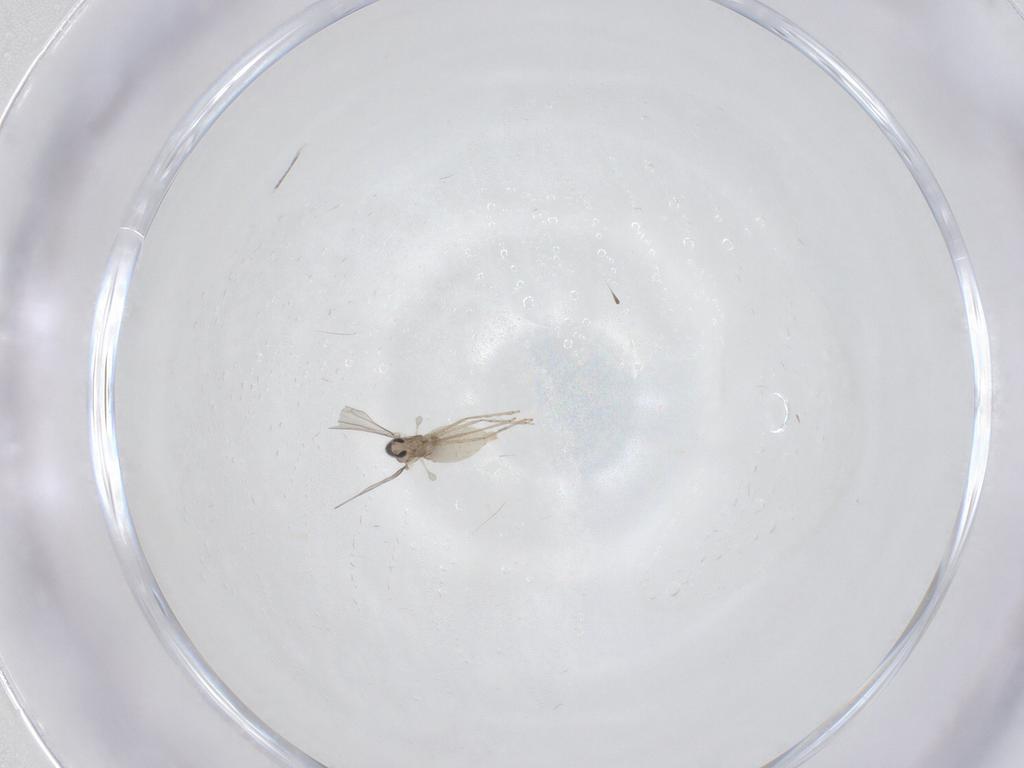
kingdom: Animalia
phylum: Arthropoda
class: Insecta
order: Diptera
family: Cecidomyiidae
